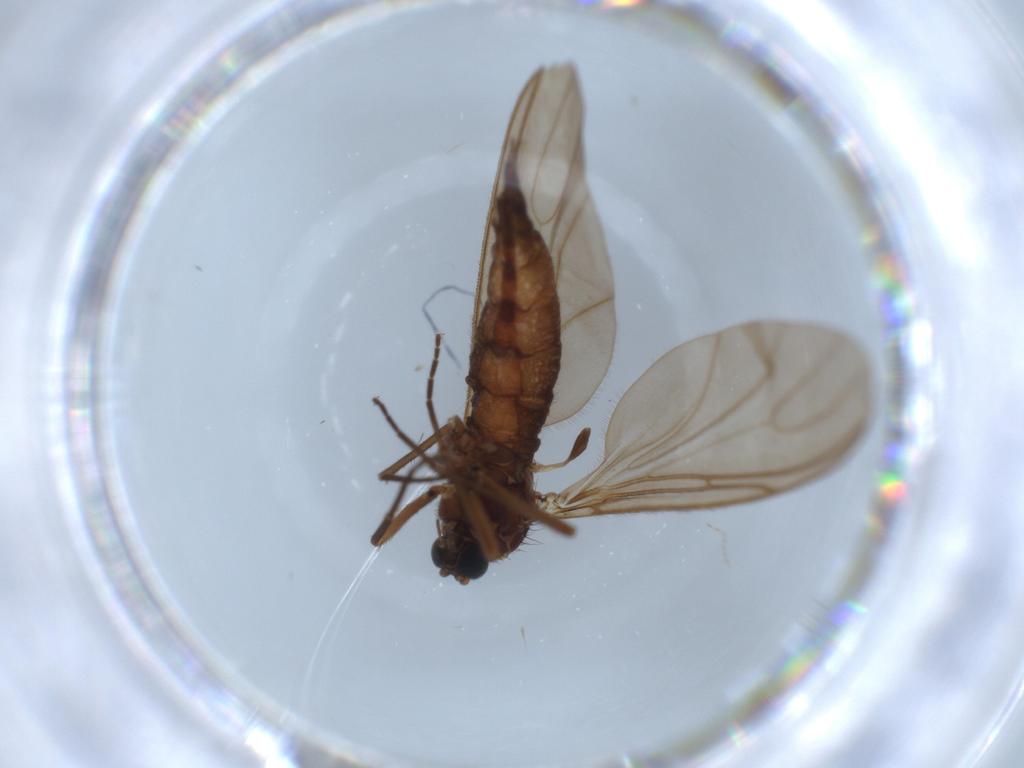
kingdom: Animalia
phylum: Arthropoda
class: Insecta
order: Diptera
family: Sciaridae
